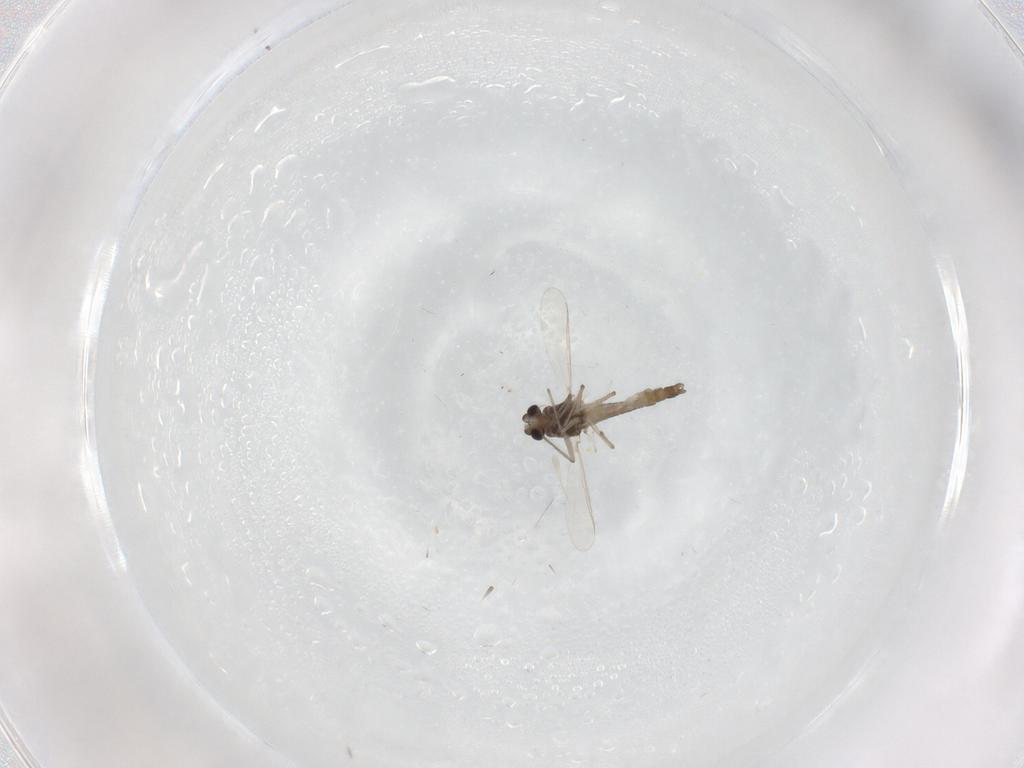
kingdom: Animalia
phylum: Arthropoda
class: Insecta
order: Diptera
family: Chironomidae
